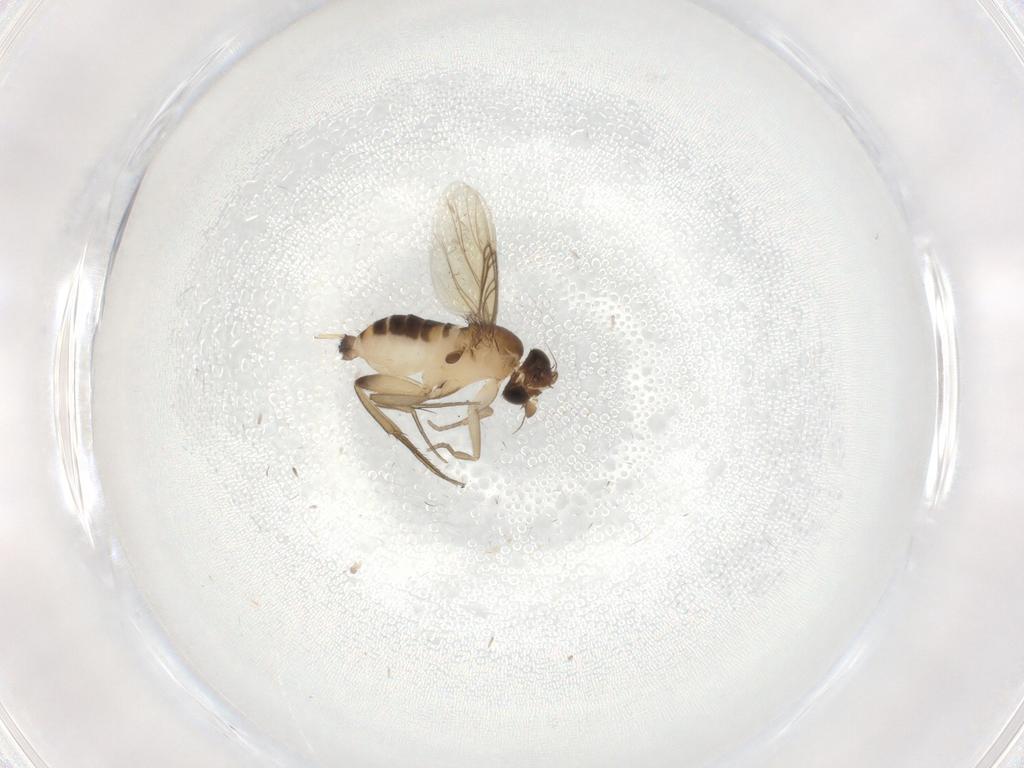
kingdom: Animalia
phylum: Arthropoda
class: Insecta
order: Diptera
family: Phoridae
